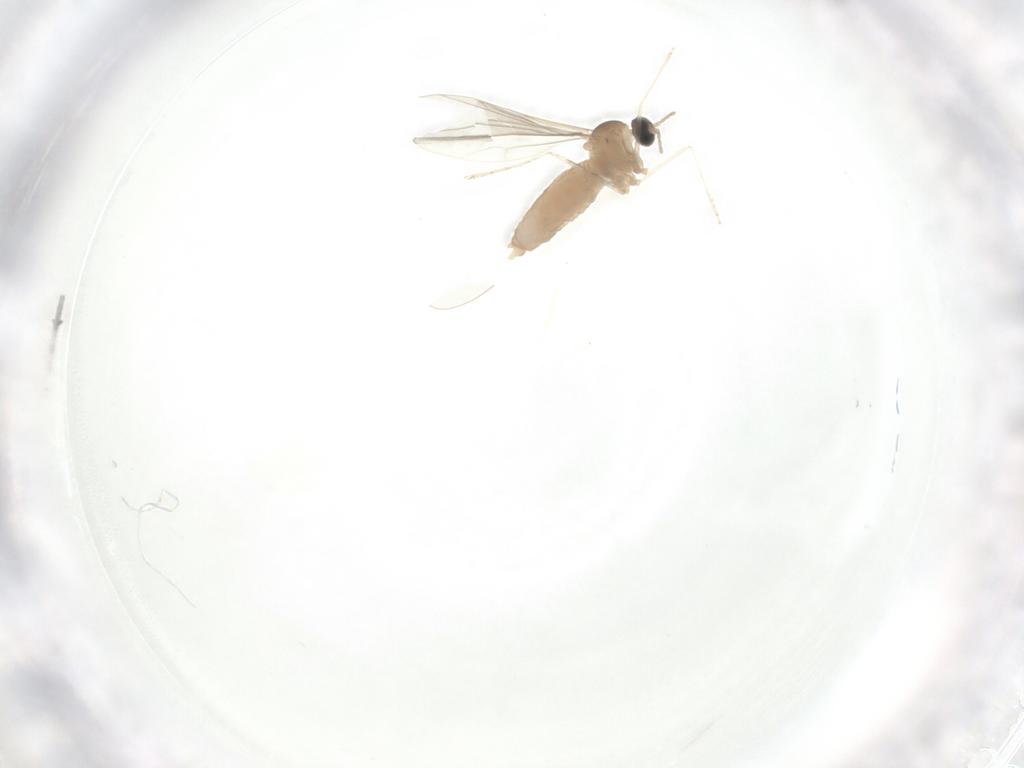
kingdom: Animalia
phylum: Arthropoda
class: Insecta
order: Diptera
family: Cecidomyiidae
